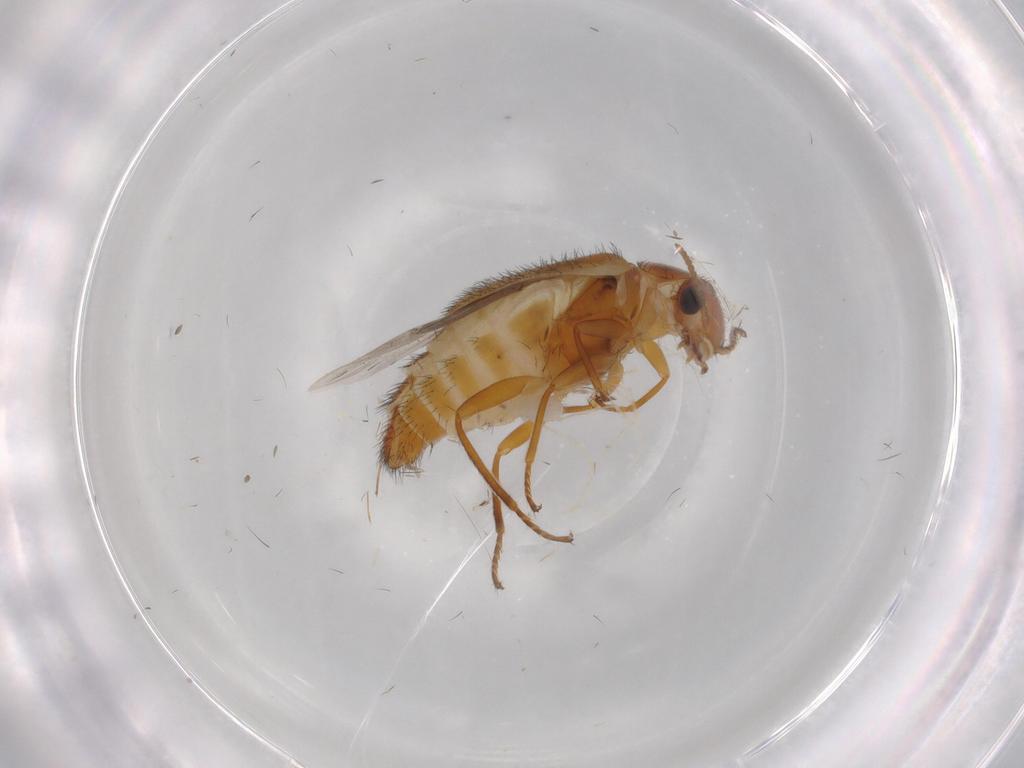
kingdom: Animalia
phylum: Arthropoda
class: Insecta
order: Coleoptera
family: Melyridae
